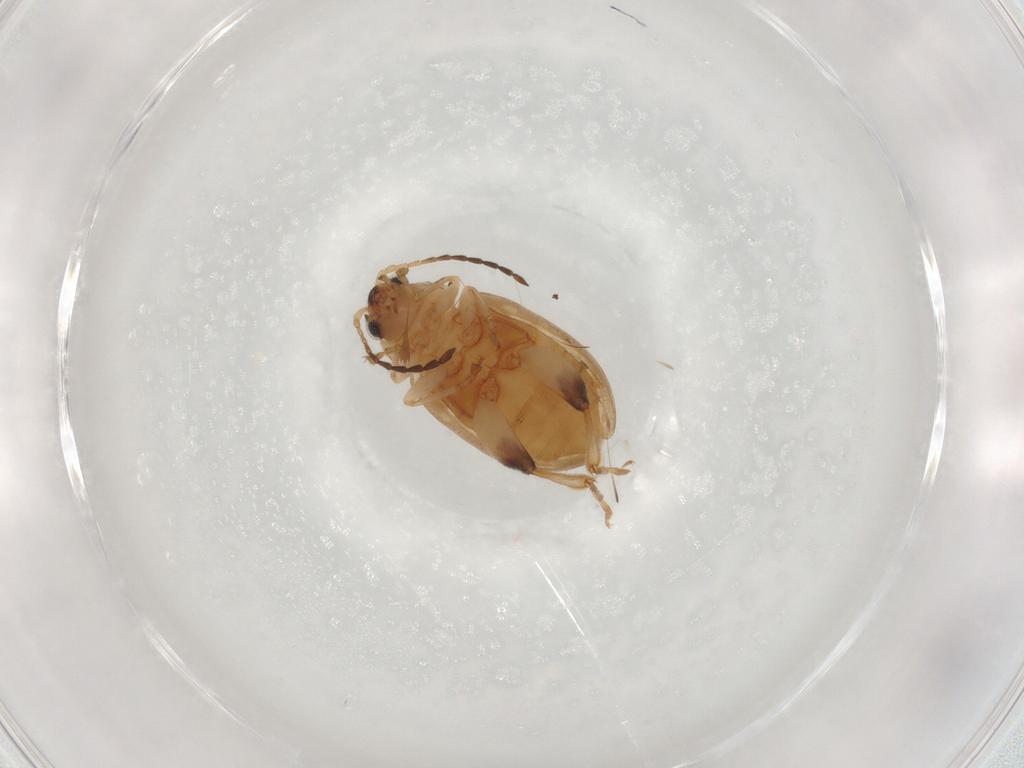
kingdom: Animalia
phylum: Arthropoda
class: Insecta
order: Coleoptera
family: Chrysomelidae
